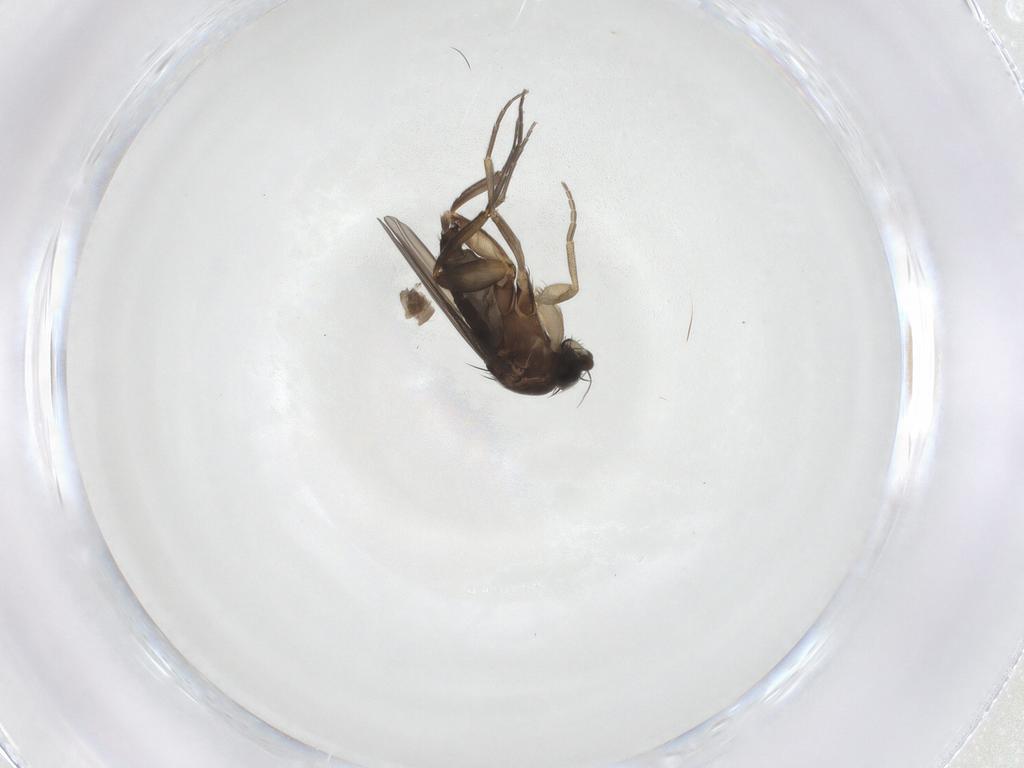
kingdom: Animalia
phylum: Arthropoda
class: Insecta
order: Diptera
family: Phoridae
